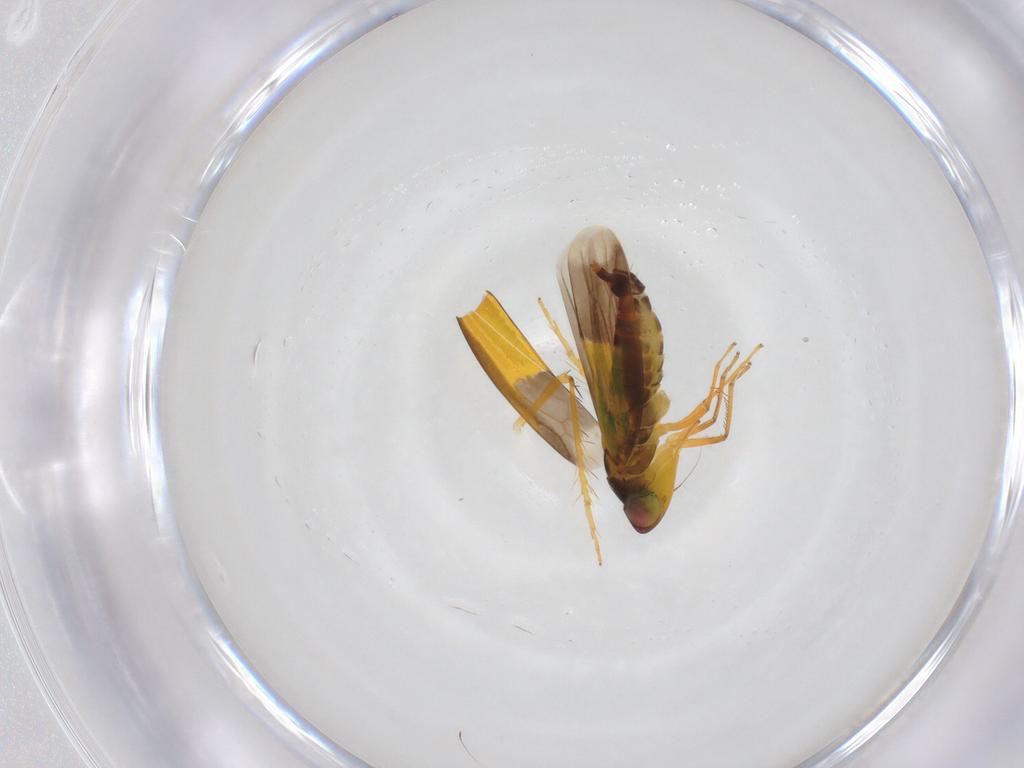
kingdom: Animalia
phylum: Arthropoda
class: Insecta
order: Hemiptera
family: Cicadellidae
